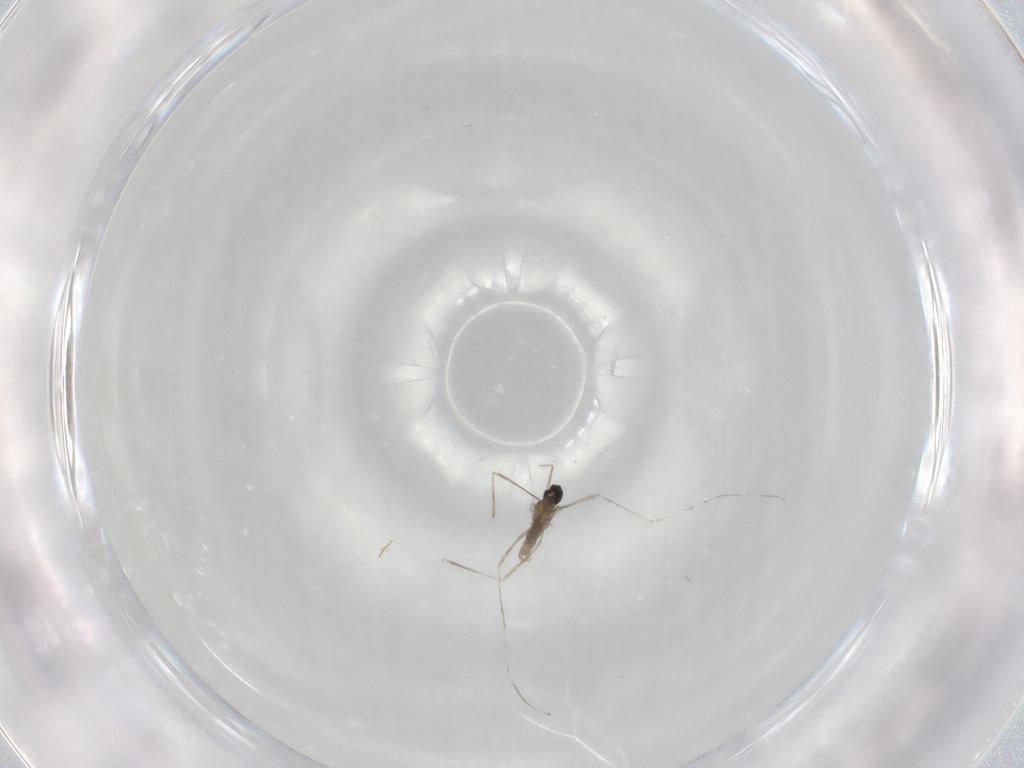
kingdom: Animalia
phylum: Arthropoda
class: Insecta
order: Diptera
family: Cecidomyiidae
